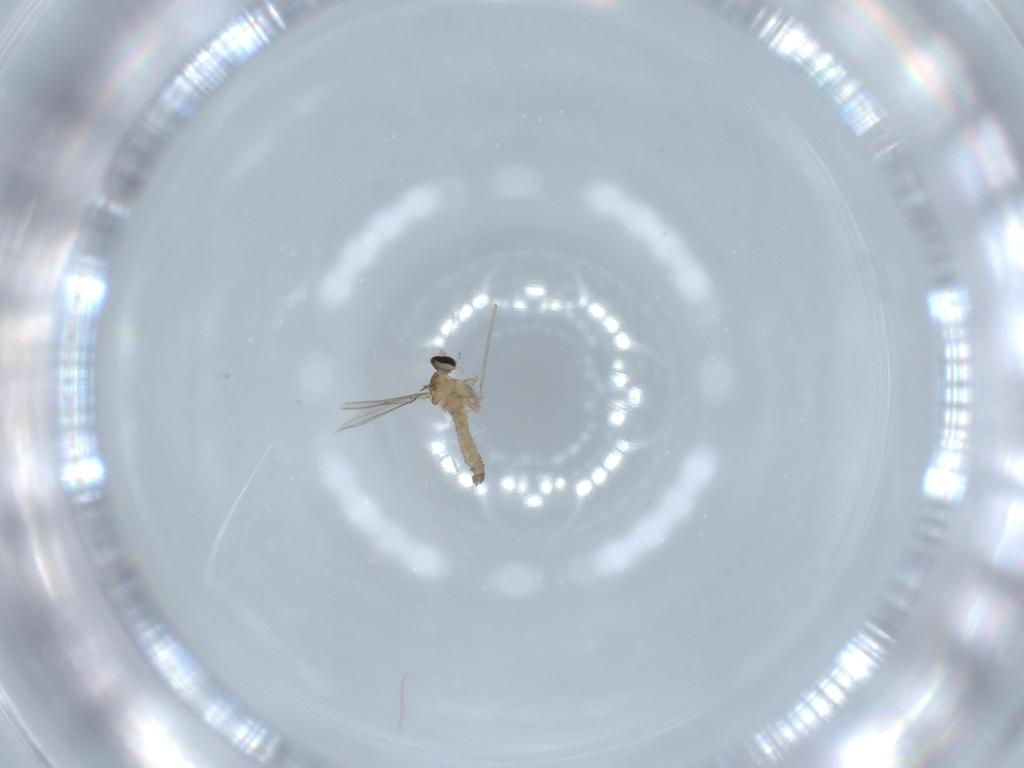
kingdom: Animalia
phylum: Arthropoda
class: Insecta
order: Diptera
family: Cecidomyiidae
